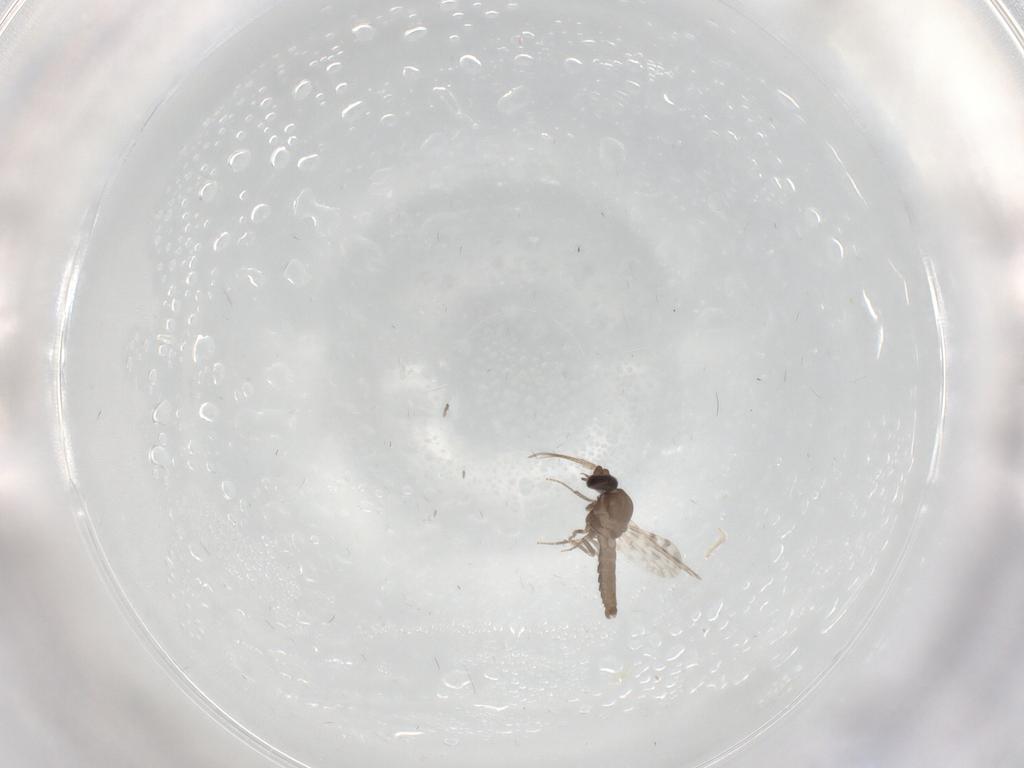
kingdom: Animalia
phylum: Arthropoda
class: Insecta
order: Diptera
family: Ceratopogonidae
